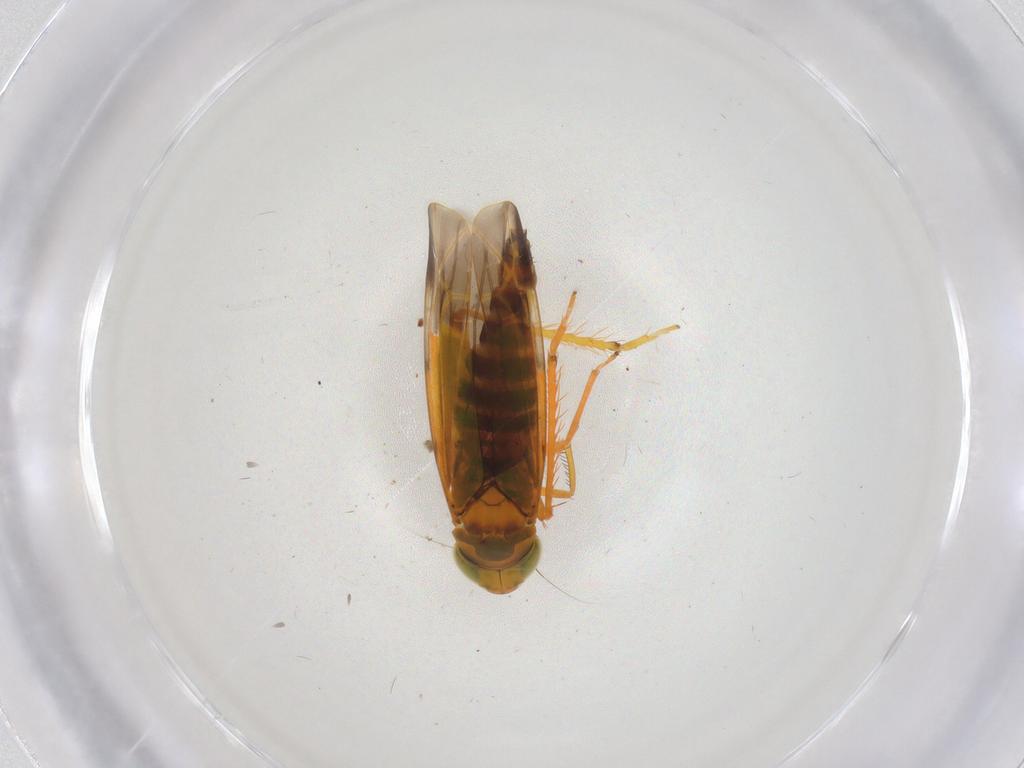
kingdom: Animalia
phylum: Arthropoda
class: Insecta
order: Hemiptera
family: Cicadellidae
